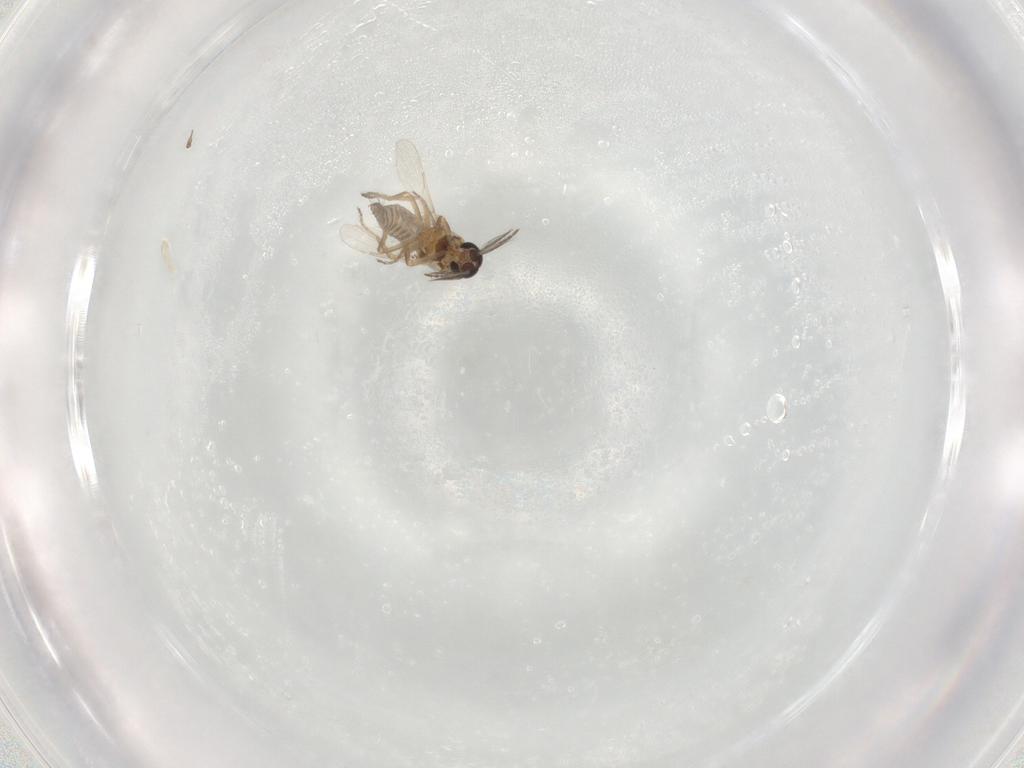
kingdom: Animalia
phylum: Arthropoda
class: Insecta
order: Diptera
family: Ceratopogonidae
